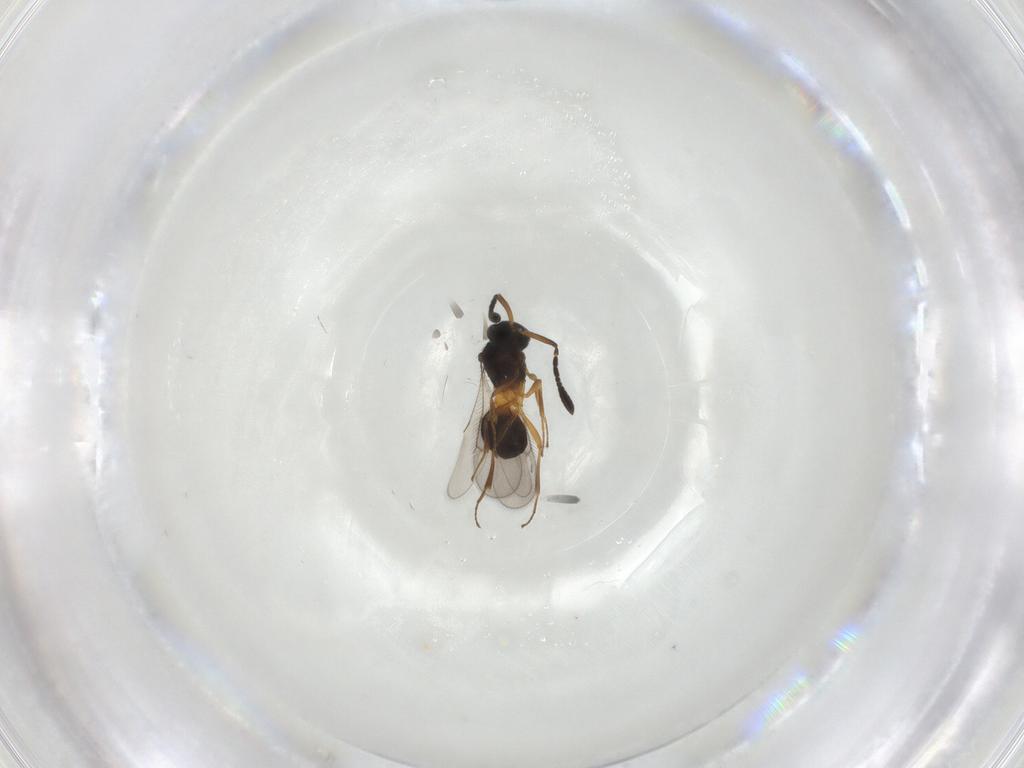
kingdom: Animalia
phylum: Arthropoda
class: Insecta
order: Hymenoptera
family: Scelionidae
